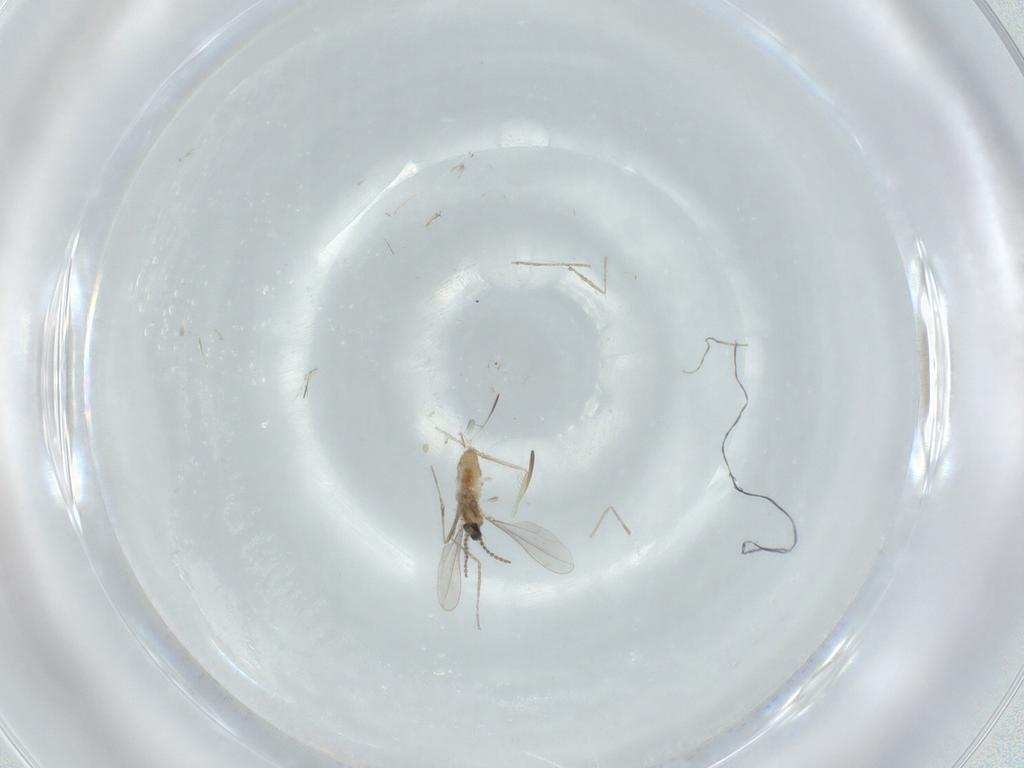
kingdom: Animalia
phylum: Arthropoda
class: Insecta
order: Diptera
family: Cecidomyiidae
